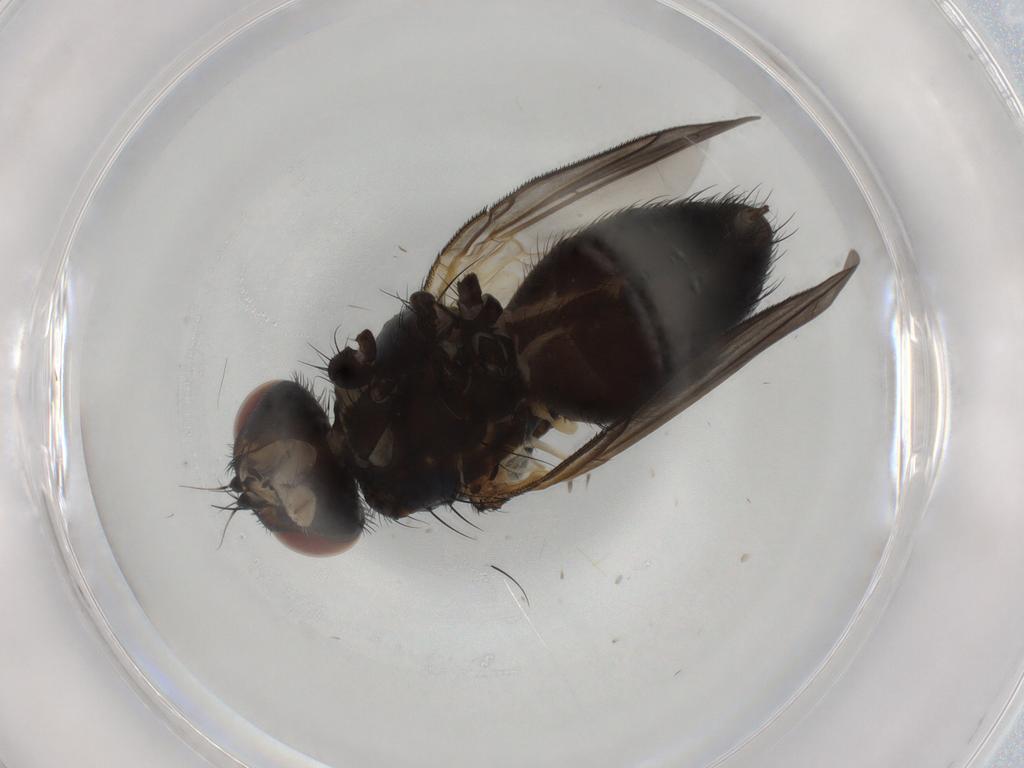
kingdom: Animalia
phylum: Arthropoda
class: Insecta
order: Diptera
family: Tachinidae
